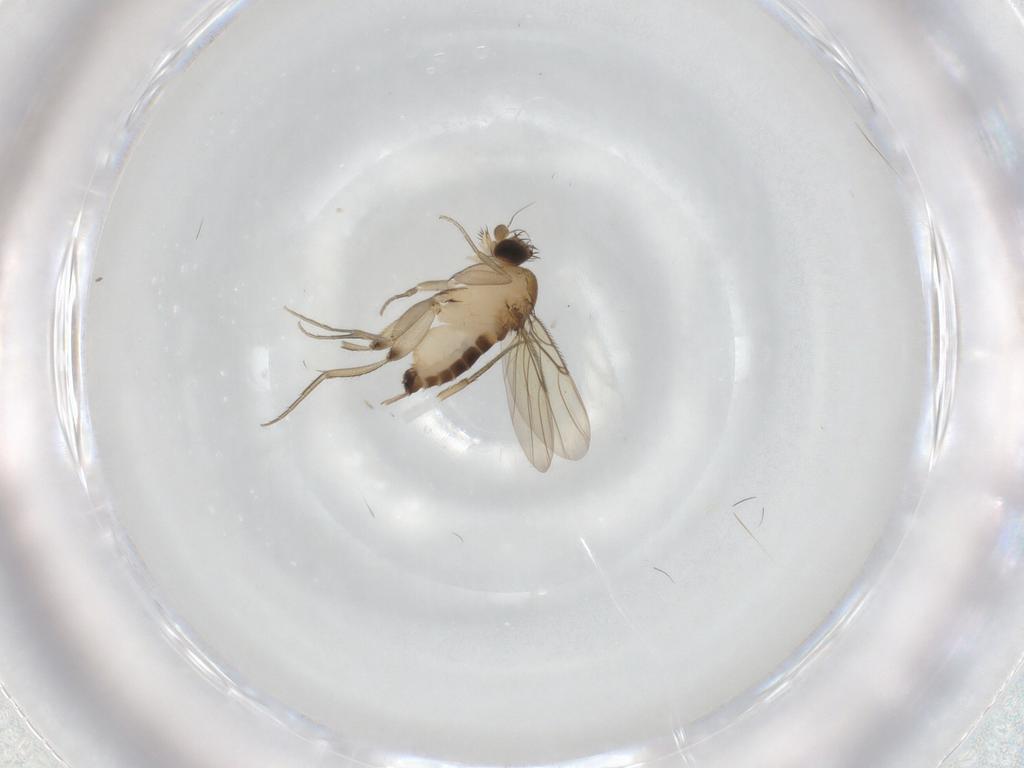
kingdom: Animalia
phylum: Arthropoda
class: Insecta
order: Diptera
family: Phoridae
